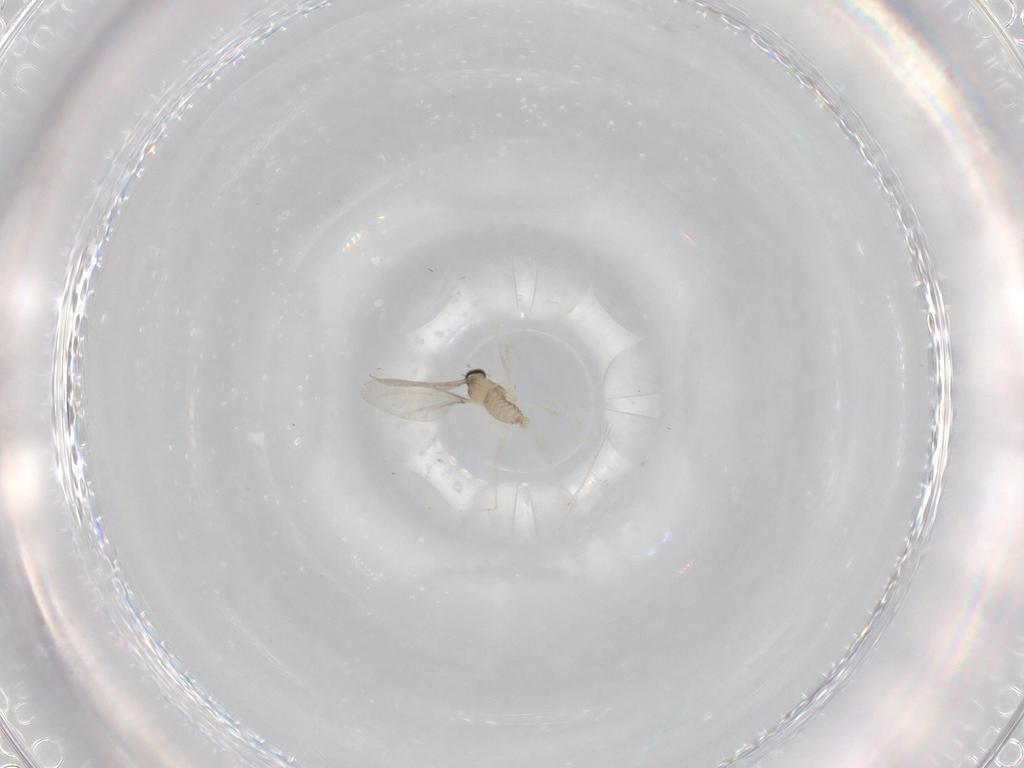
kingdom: Animalia
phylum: Arthropoda
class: Insecta
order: Diptera
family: Cecidomyiidae
